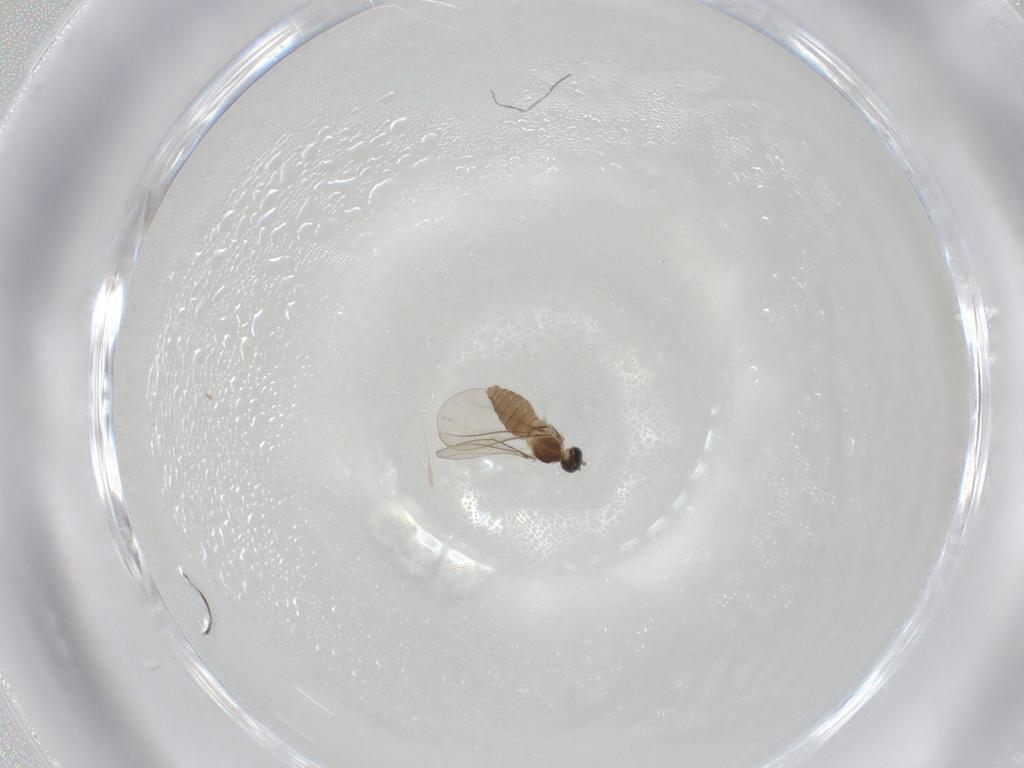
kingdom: Animalia
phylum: Arthropoda
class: Insecta
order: Diptera
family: Cecidomyiidae
